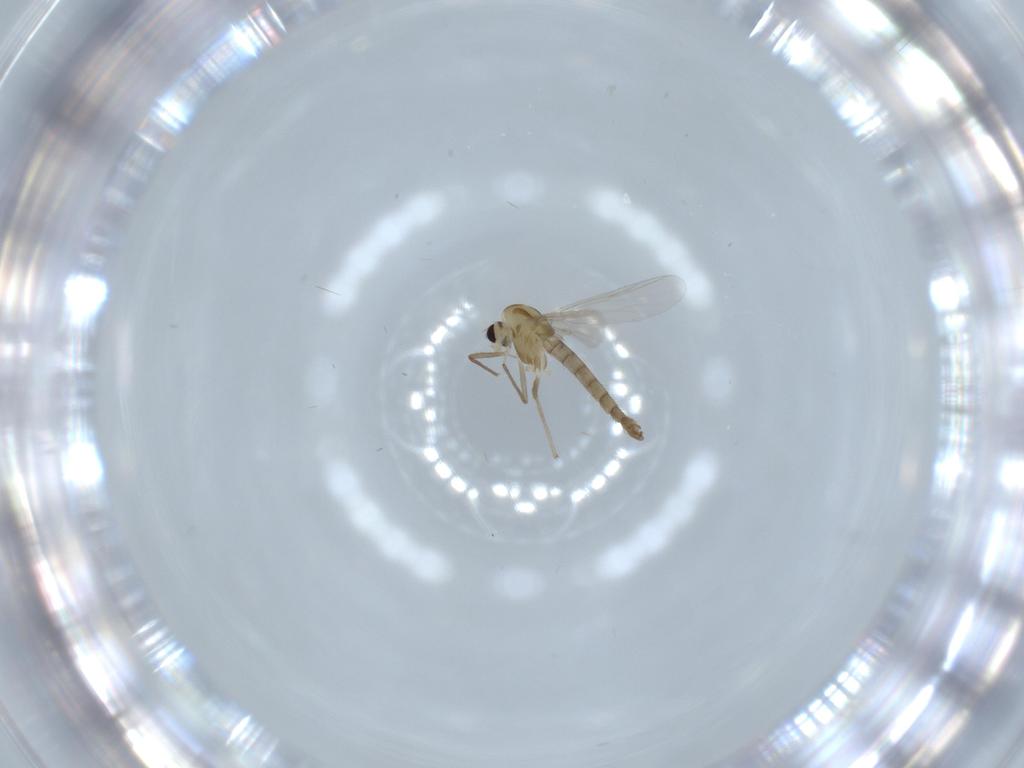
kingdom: Animalia
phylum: Arthropoda
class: Insecta
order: Diptera
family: Chironomidae
